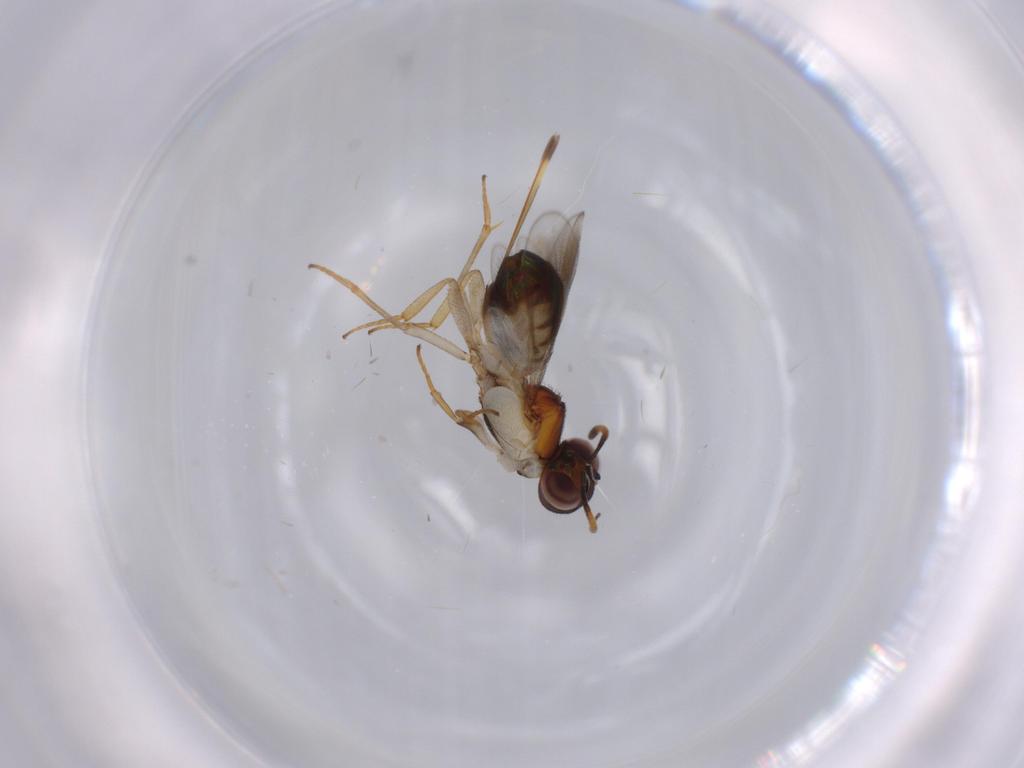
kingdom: Animalia
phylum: Arthropoda
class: Insecta
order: Hymenoptera
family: Pteromalidae
